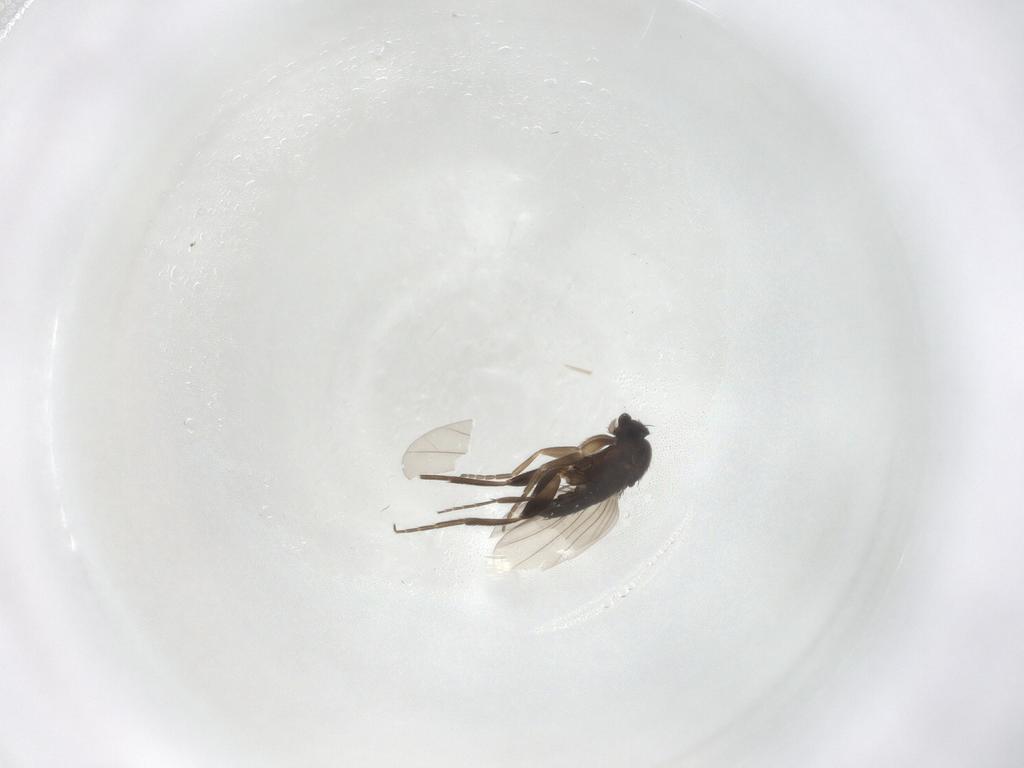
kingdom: Animalia
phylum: Arthropoda
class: Insecta
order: Diptera
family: Phoridae
